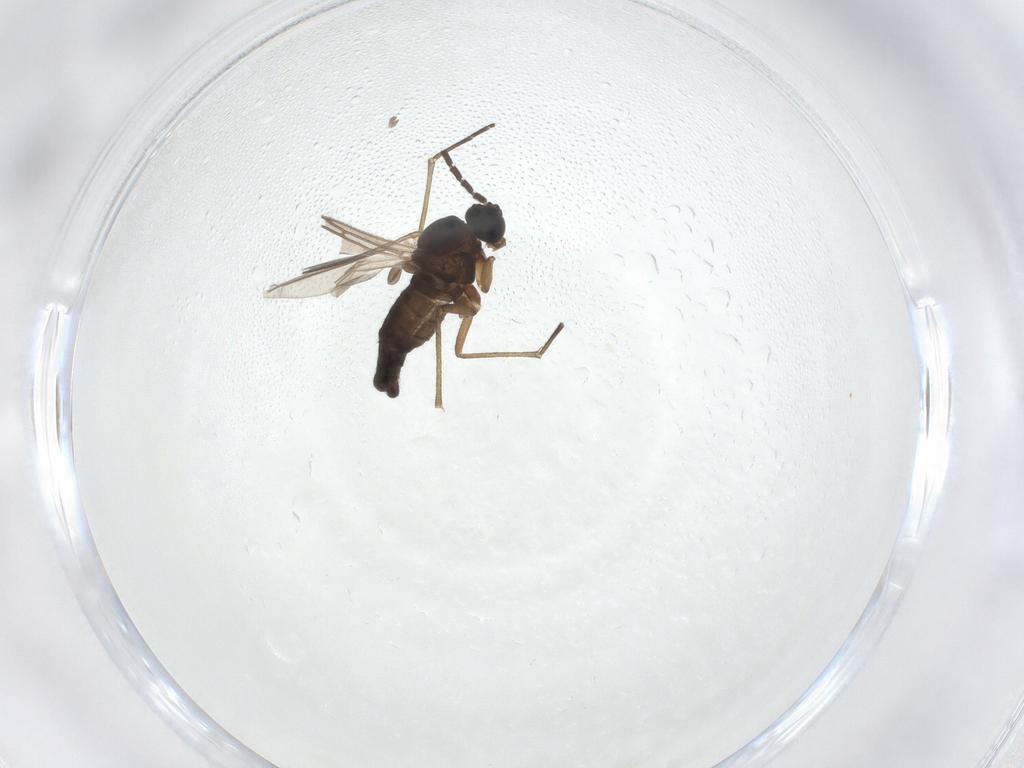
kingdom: Animalia
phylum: Arthropoda
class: Insecta
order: Diptera
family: Sciaridae
